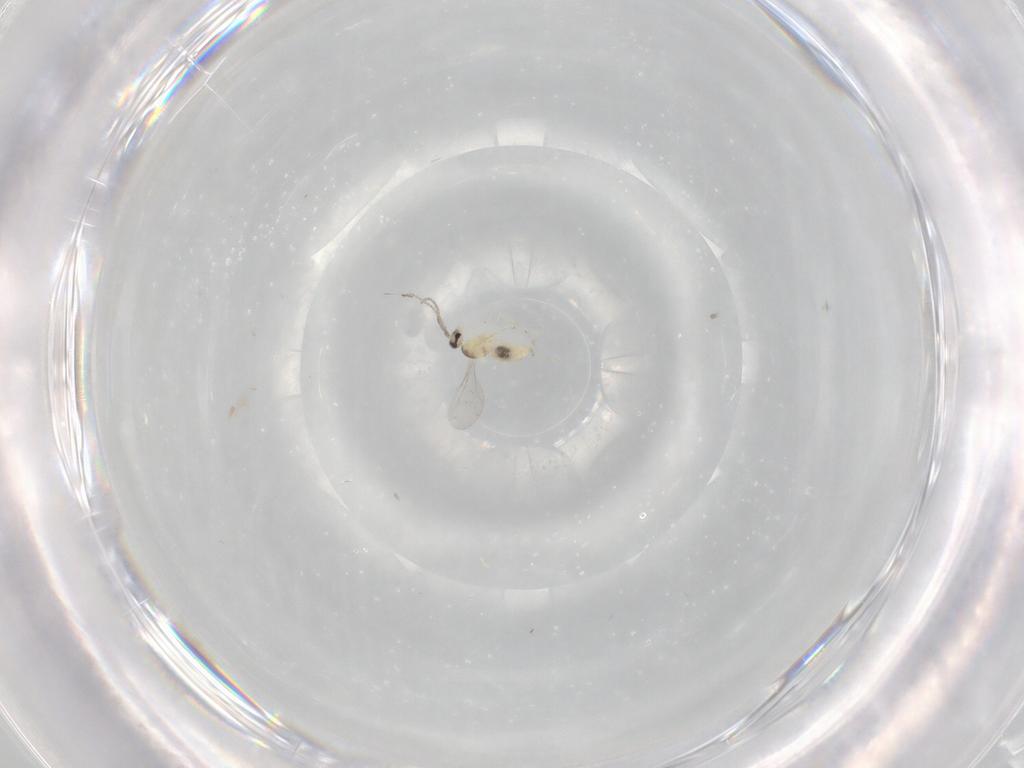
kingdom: Animalia
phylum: Arthropoda
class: Insecta
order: Diptera
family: Cecidomyiidae
